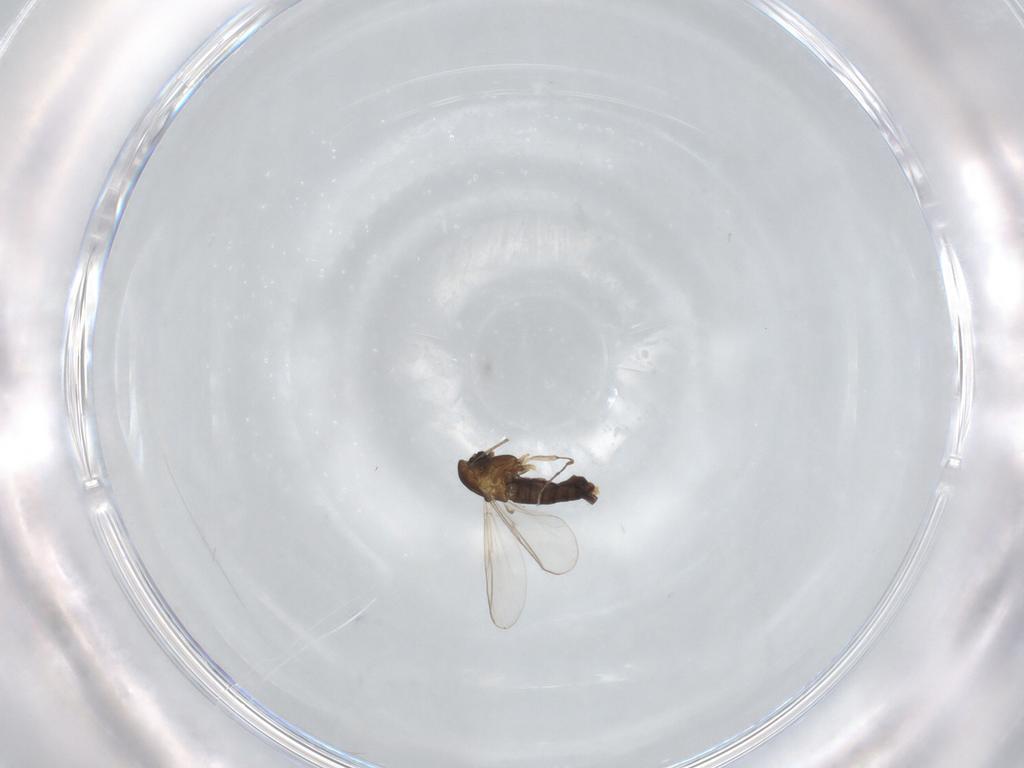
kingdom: Animalia
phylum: Arthropoda
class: Insecta
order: Diptera
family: Chironomidae
